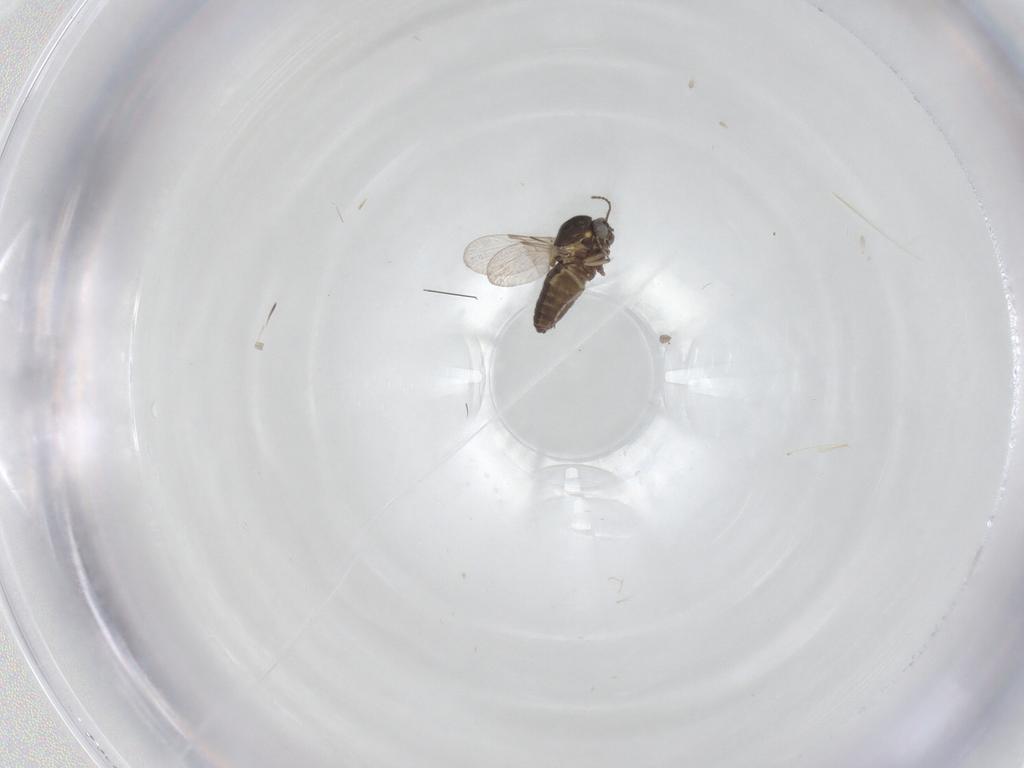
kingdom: Animalia
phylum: Arthropoda
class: Insecta
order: Diptera
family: Ceratopogonidae
